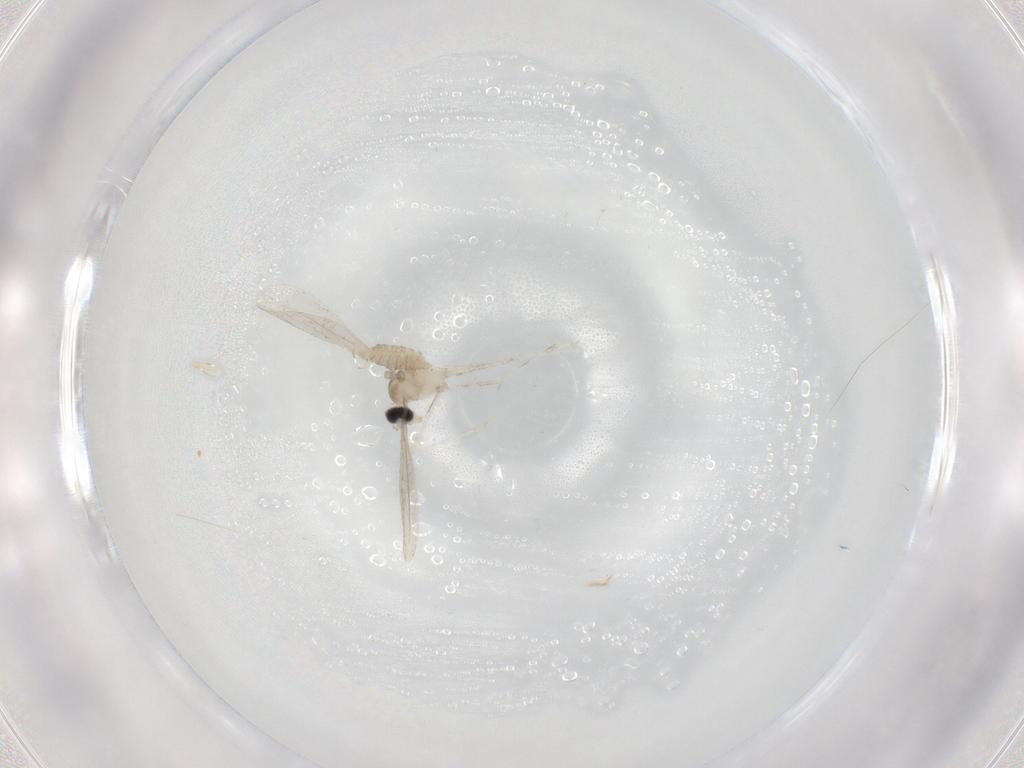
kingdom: Animalia
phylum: Arthropoda
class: Insecta
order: Diptera
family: Cecidomyiidae
